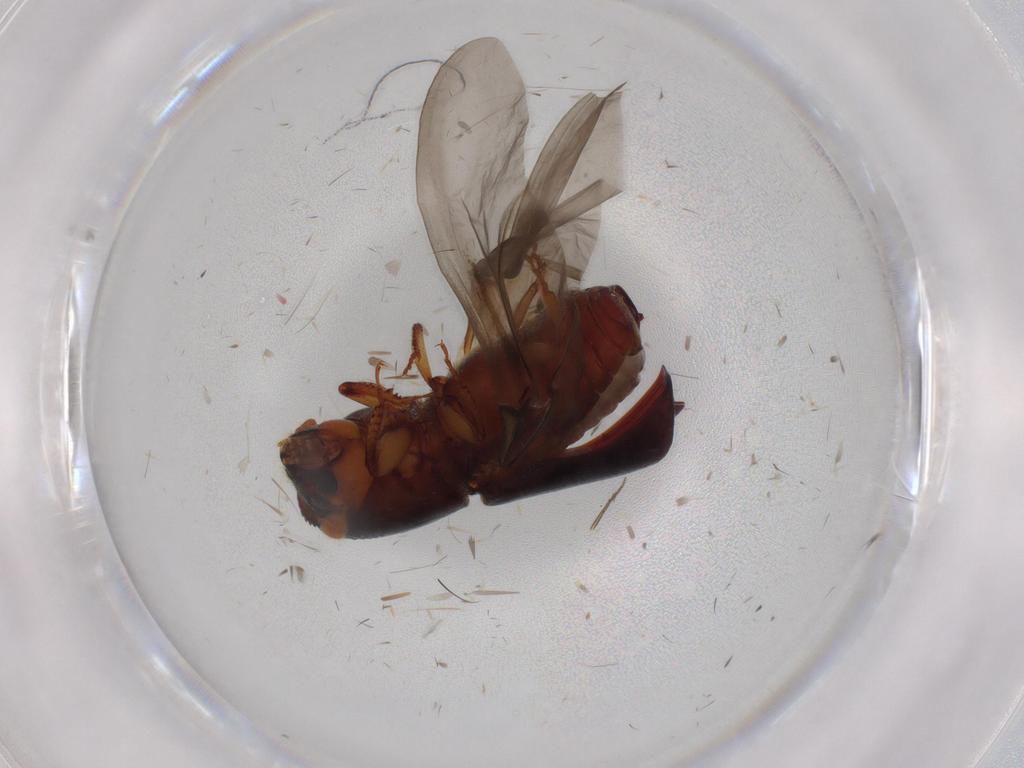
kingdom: Animalia
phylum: Arthropoda
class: Insecta
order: Coleoptera
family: Curculionidae
